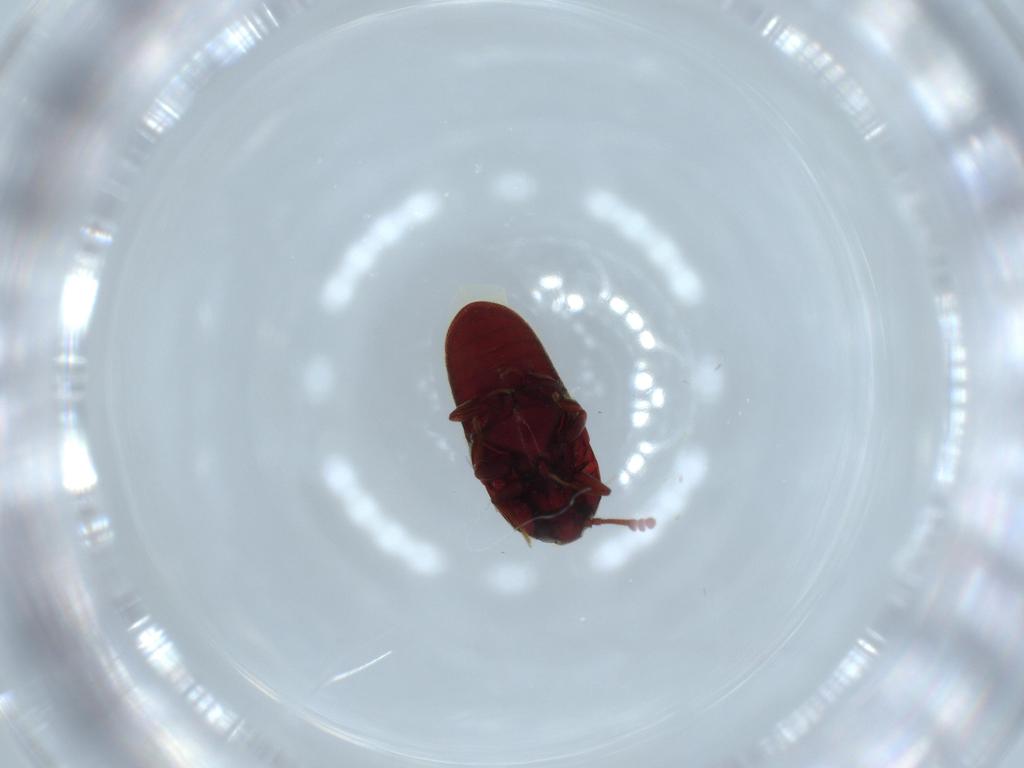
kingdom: Animalia
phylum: Arthropoda
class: Insecta
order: Coleoptera
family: Throscidae
